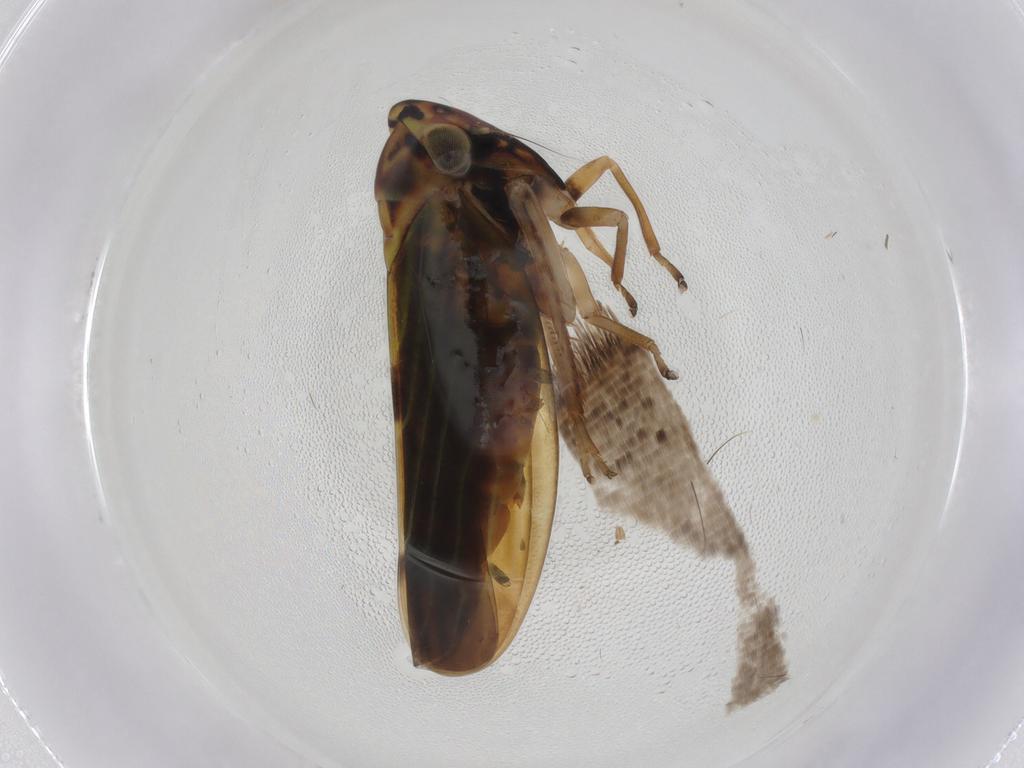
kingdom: Animalia
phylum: Arthropoda
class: Insecta
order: Hemiptera
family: Cicadellidae
